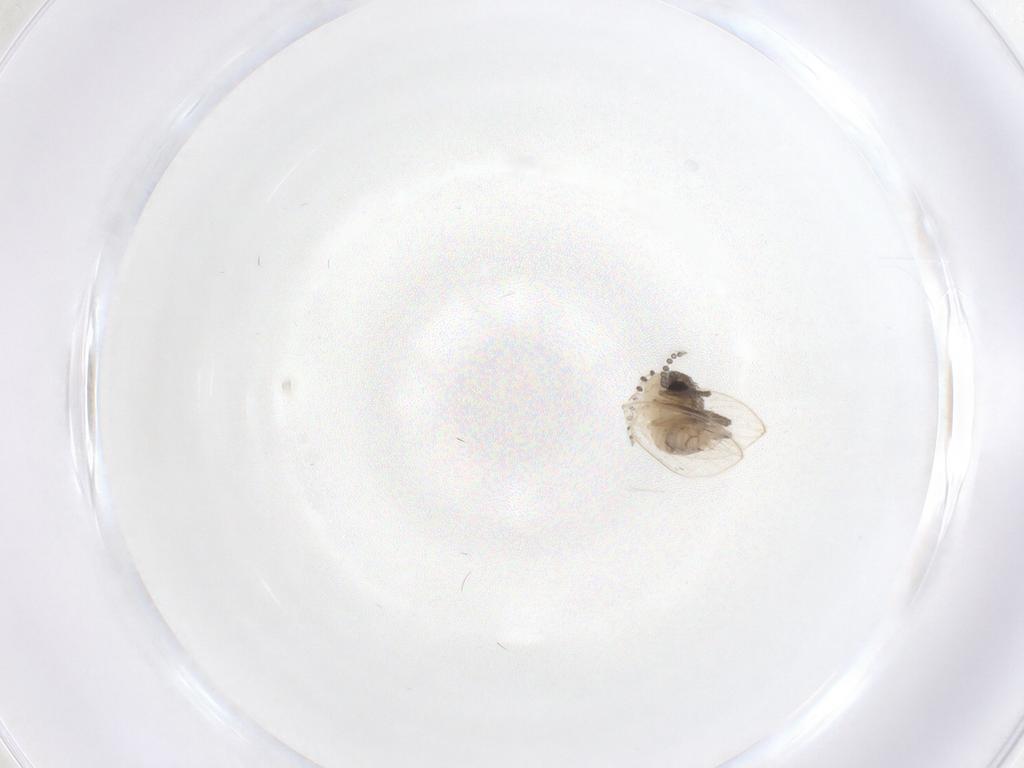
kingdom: Animalia
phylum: Arthropoda
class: Insecta
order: Diptera
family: Psychodidae
